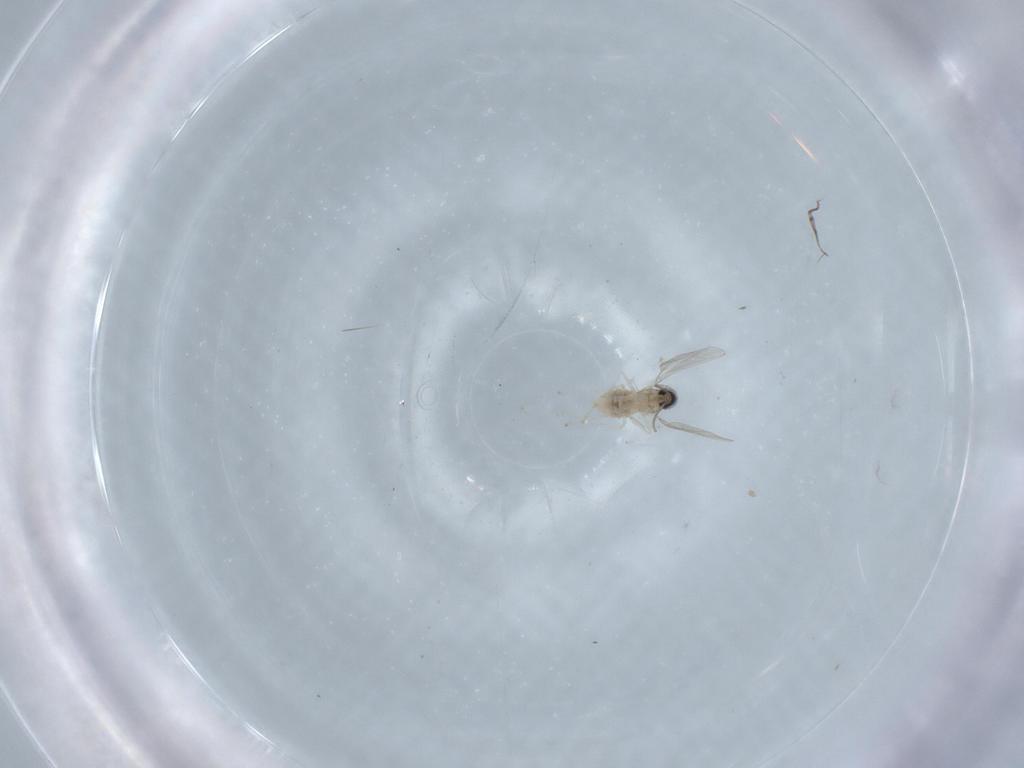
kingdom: Animalia
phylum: Arthropoda
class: Insecta
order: Diptera
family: Cecidomyiidae
